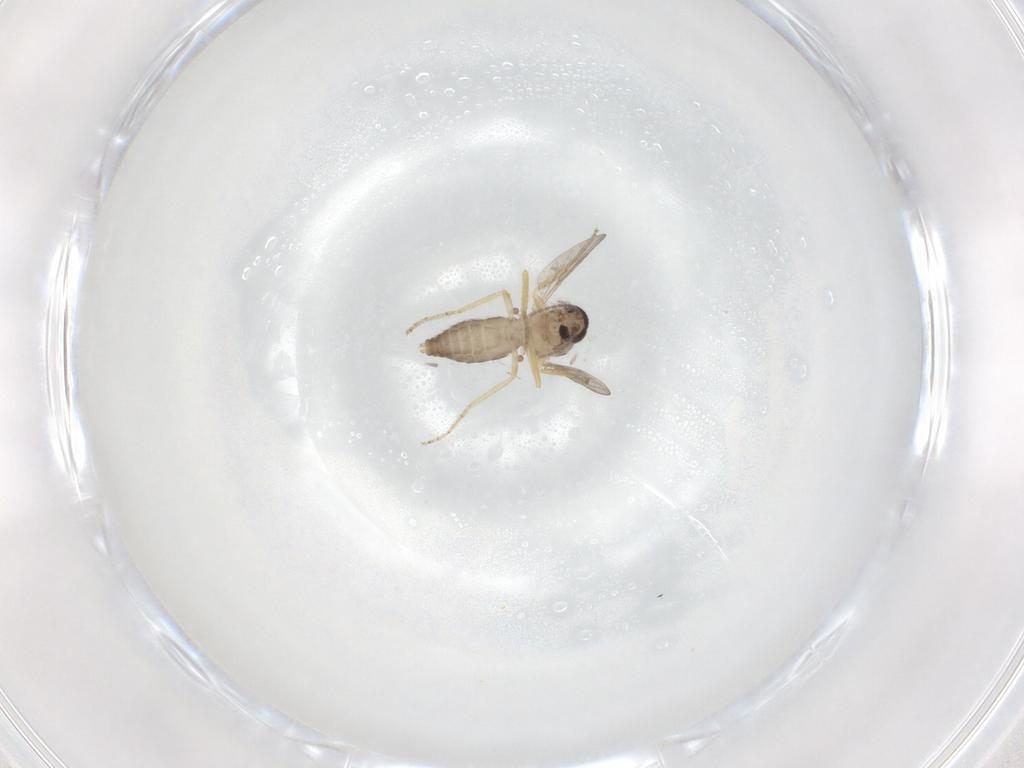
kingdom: Animalia
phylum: Arthropoda
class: Insecta
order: Diptera
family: Ceratopogonidae
